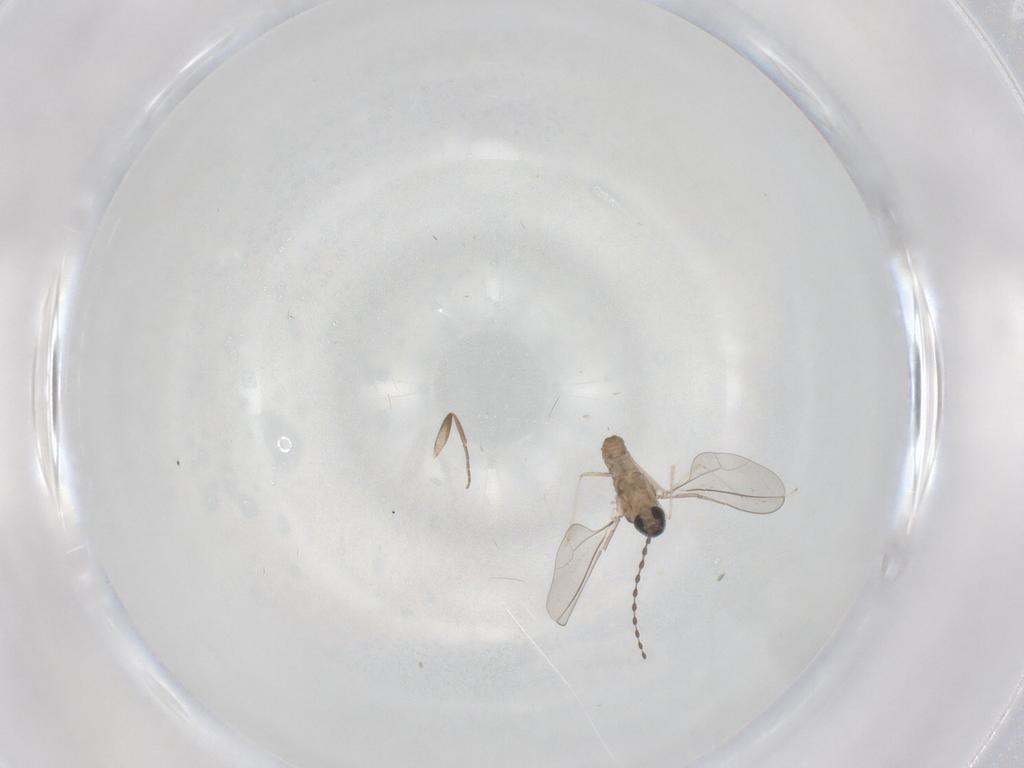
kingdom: Animalia
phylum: Arthropoda
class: Insecta
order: Diptera
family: Cecidomyiidae
